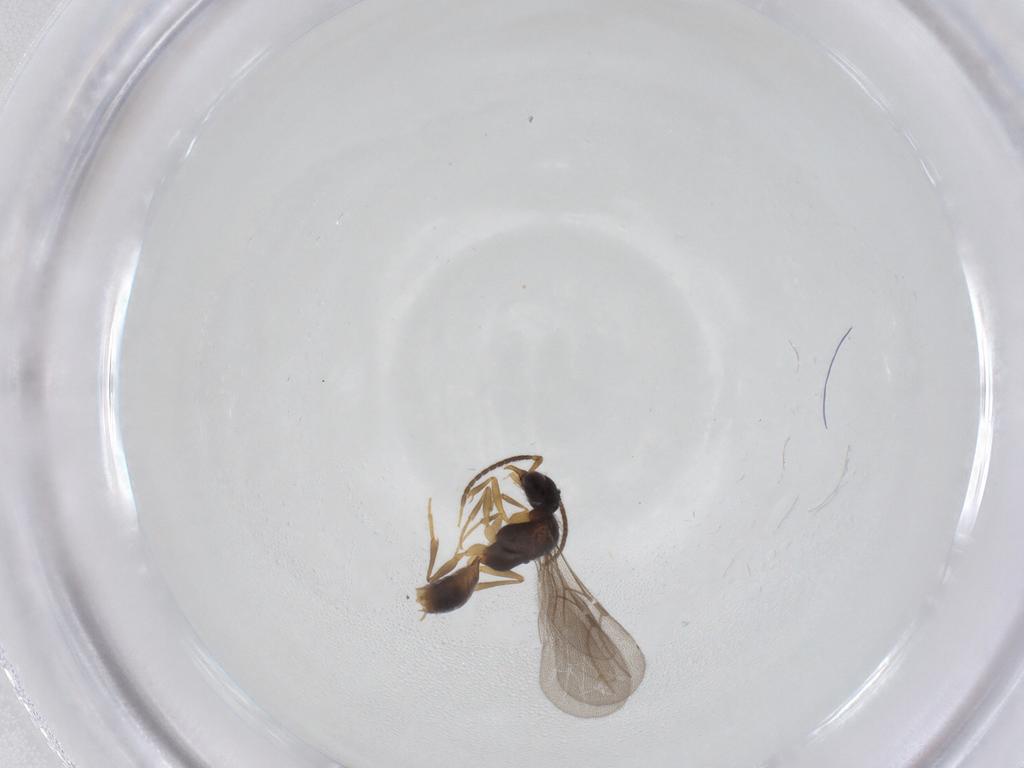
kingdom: Animalia
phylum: Arthropoda
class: Insecta
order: Hymenoptera
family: Bethylidae
